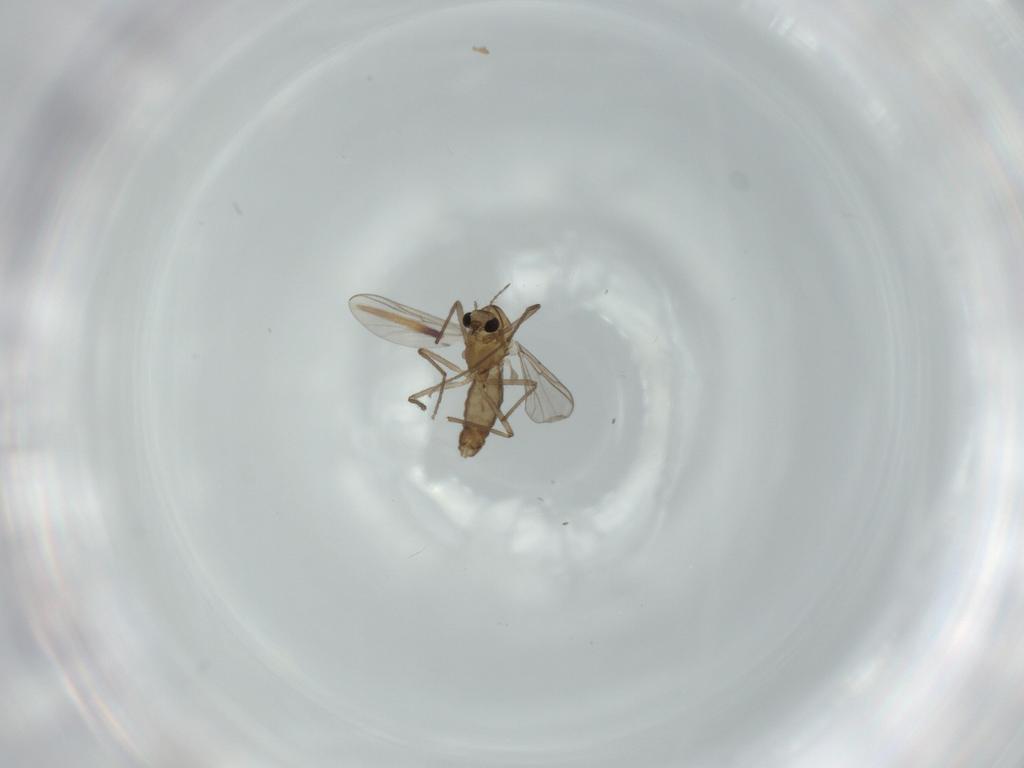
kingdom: Animalia
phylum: Arthropoda
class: Insecta
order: Diptera
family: Chironomidae
